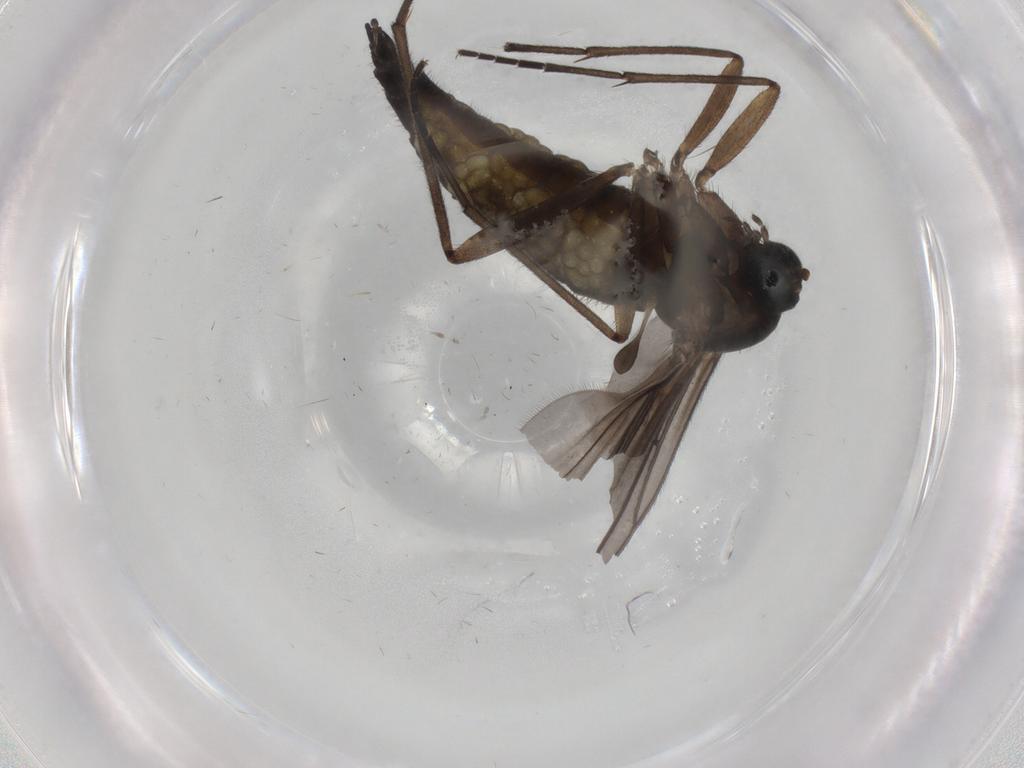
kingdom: Animalia
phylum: Arthropoda
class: Insecta
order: Diptera
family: Sciaridae
